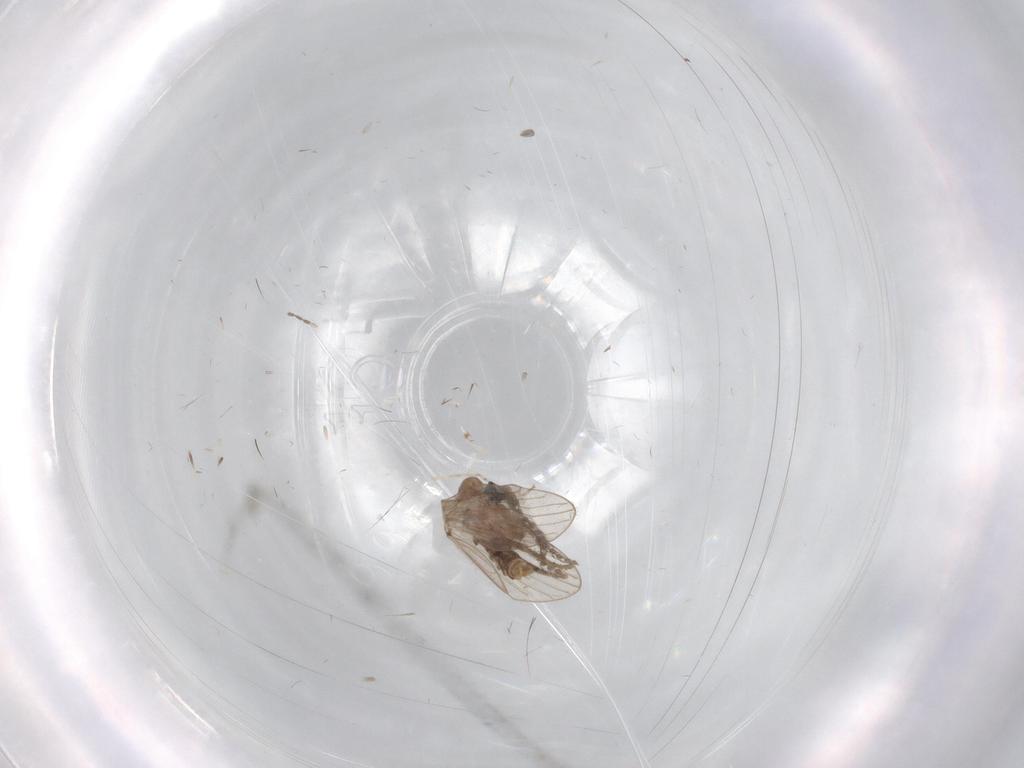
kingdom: Animalia
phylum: Arthropoda
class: Insecta
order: Diptera
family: Cecidomyiidae
